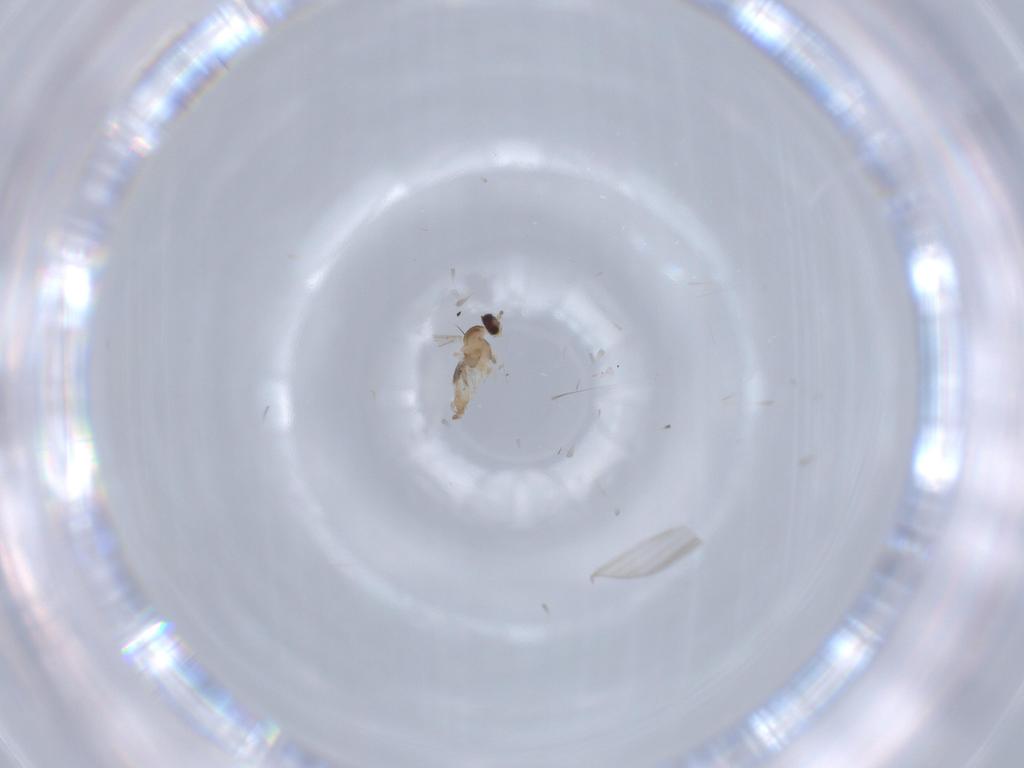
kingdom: Animalia
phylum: Arthropoda
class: Insecta
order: Diptera
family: Cecidomyiidae
